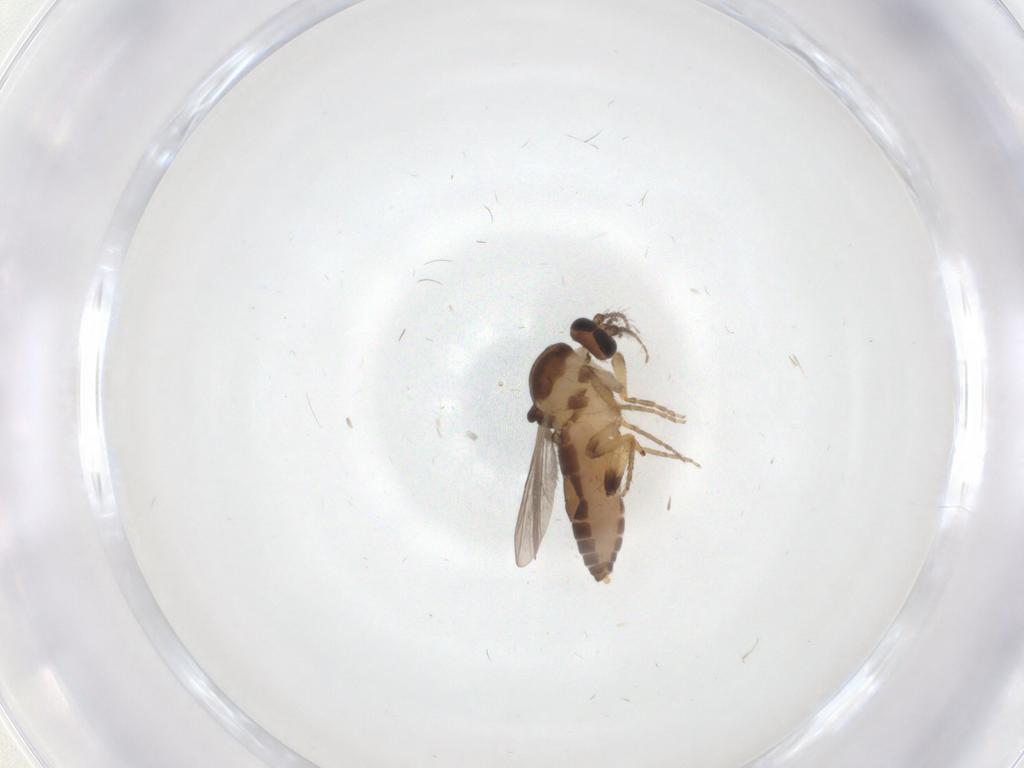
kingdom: Animalia
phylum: Arthropoda
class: Insecta
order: Diptera
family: Ceratopogonidae
